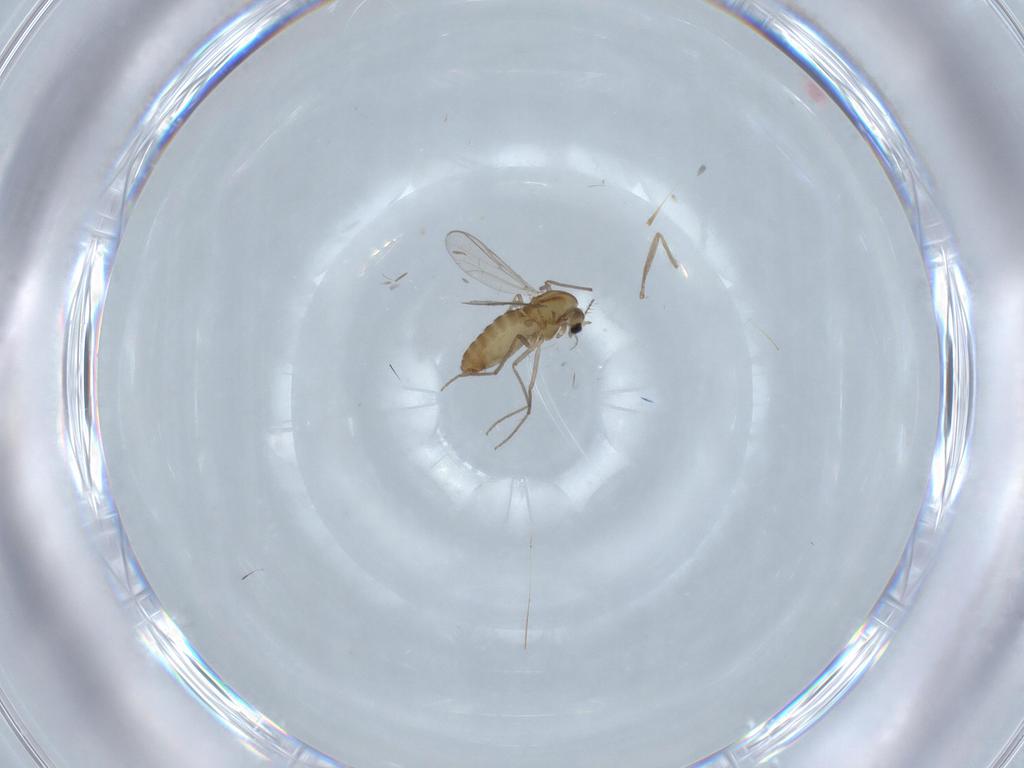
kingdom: Animalia
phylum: Arthropoda
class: Insecta
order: Diptera
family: Chironomidae
